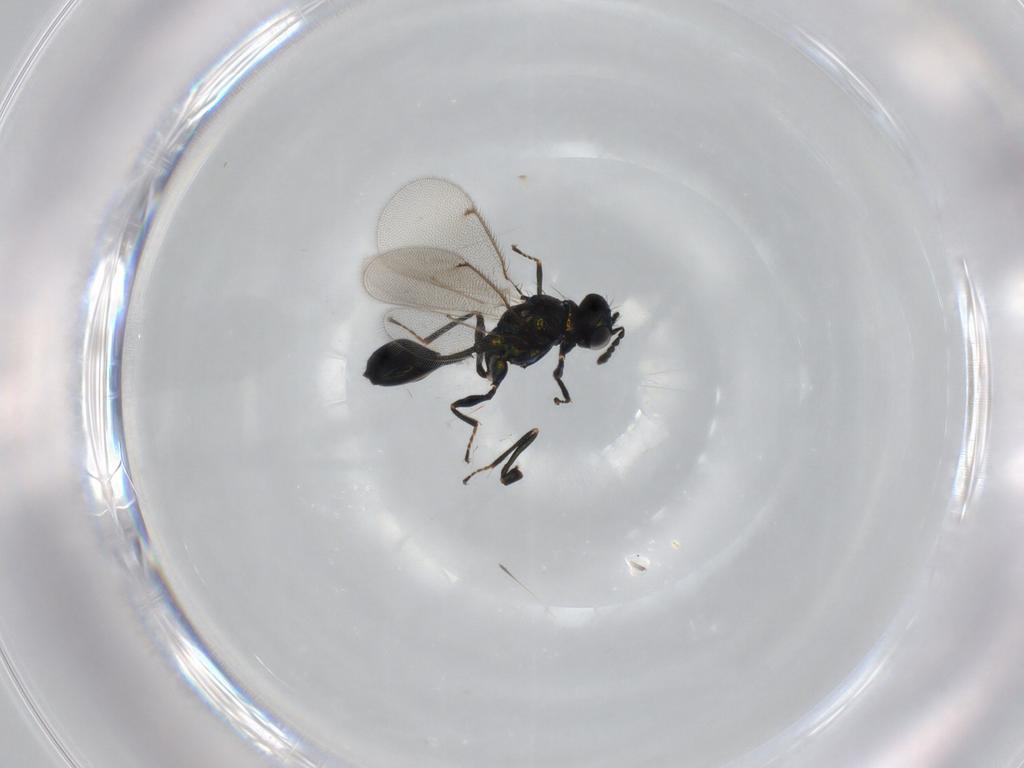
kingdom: Animalia
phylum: Arthropoda
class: Insecta
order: Hymenoptera
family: Eulophidae
